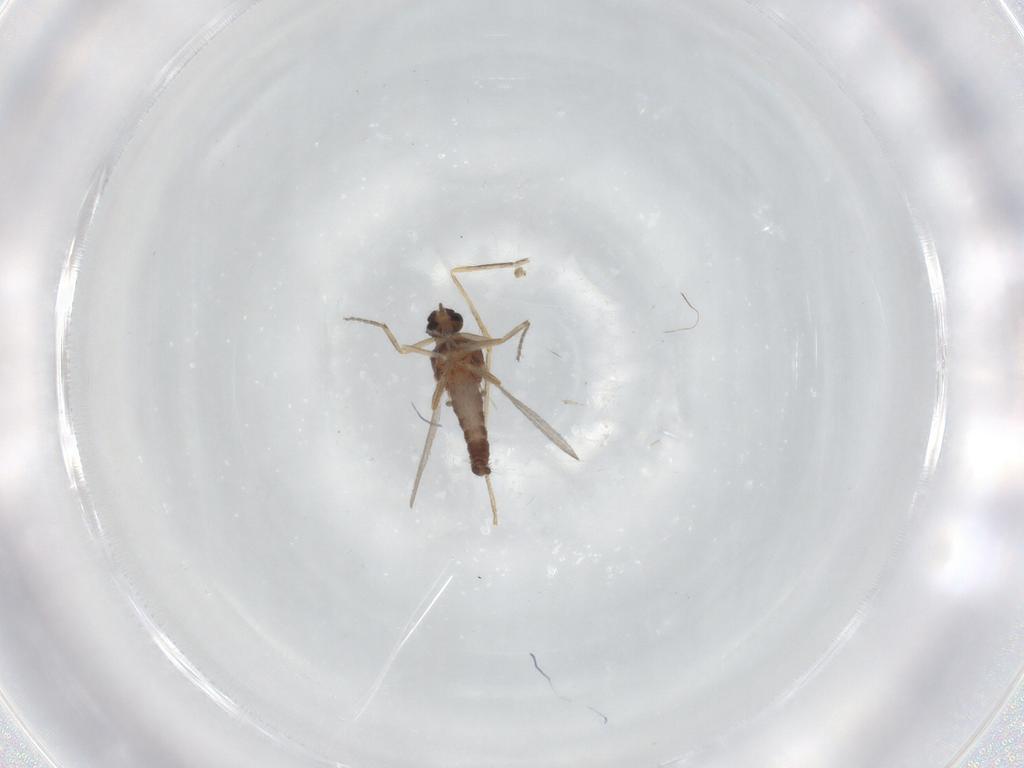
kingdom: Animalia
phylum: Arthropoda
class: Insecta
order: Diptera
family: Ceratopogonidae
